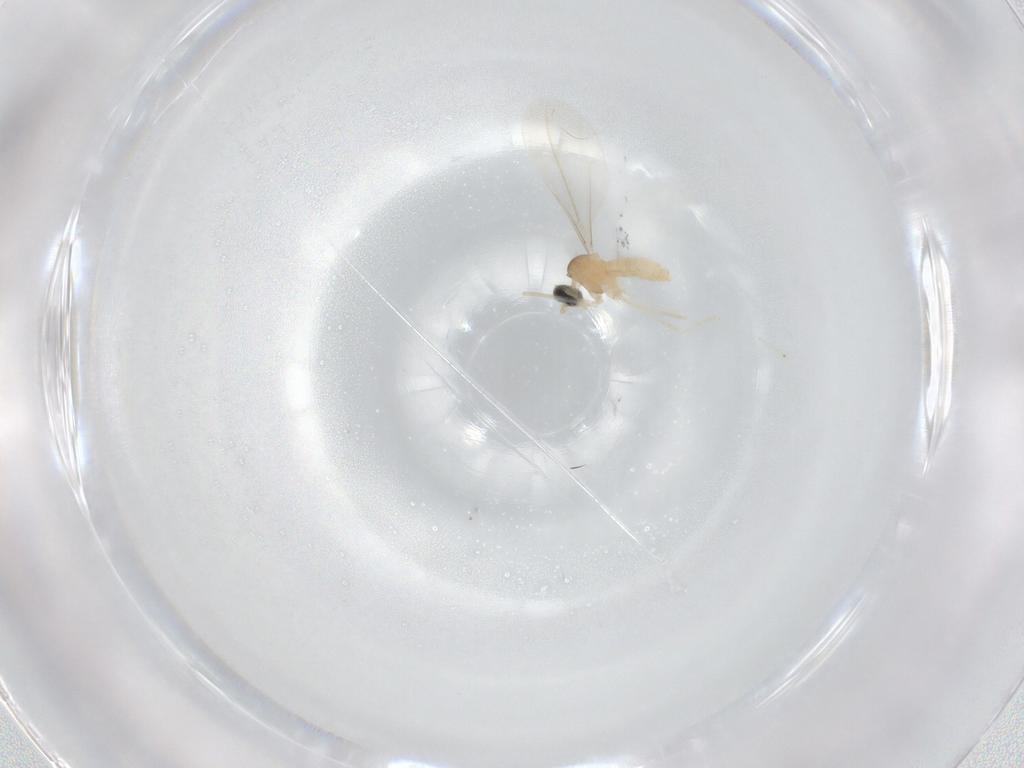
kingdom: Animalia
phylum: Arthropoda
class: Insecta
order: Diptera
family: Cecidomyiidae
